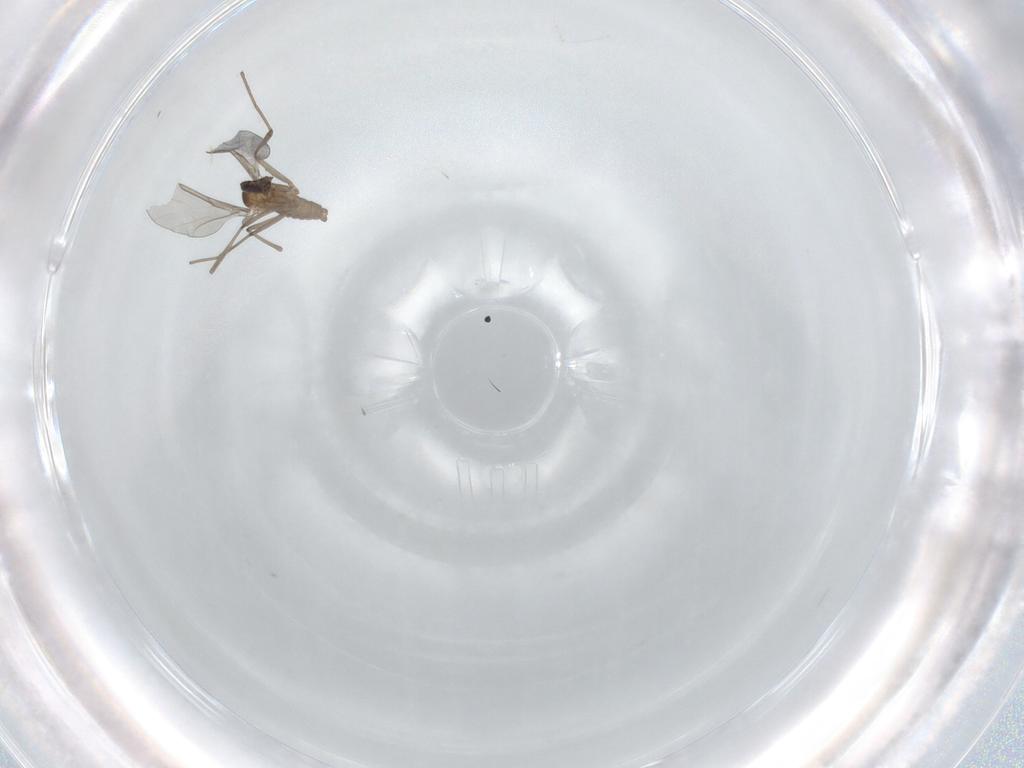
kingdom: Animalia
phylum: Arthropoda
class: Insecta
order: Diptera
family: Cecidomyiidae
